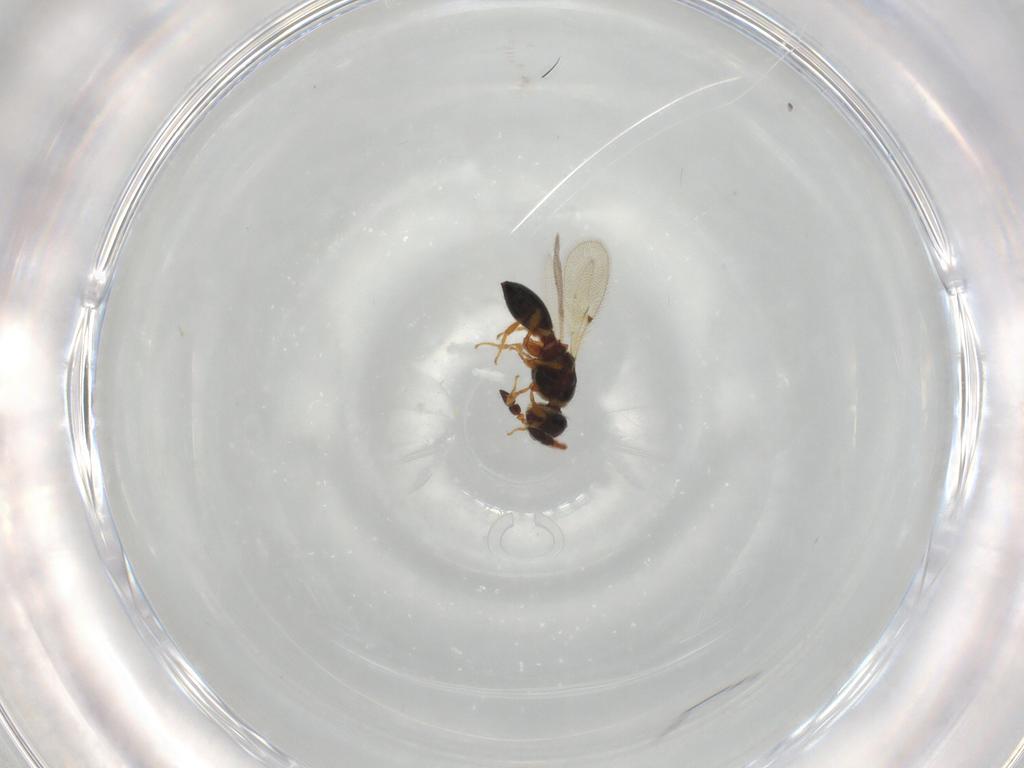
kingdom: Animalia
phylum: Arthropoda
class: Insecta
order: Hymenoptera
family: Diapriidae
